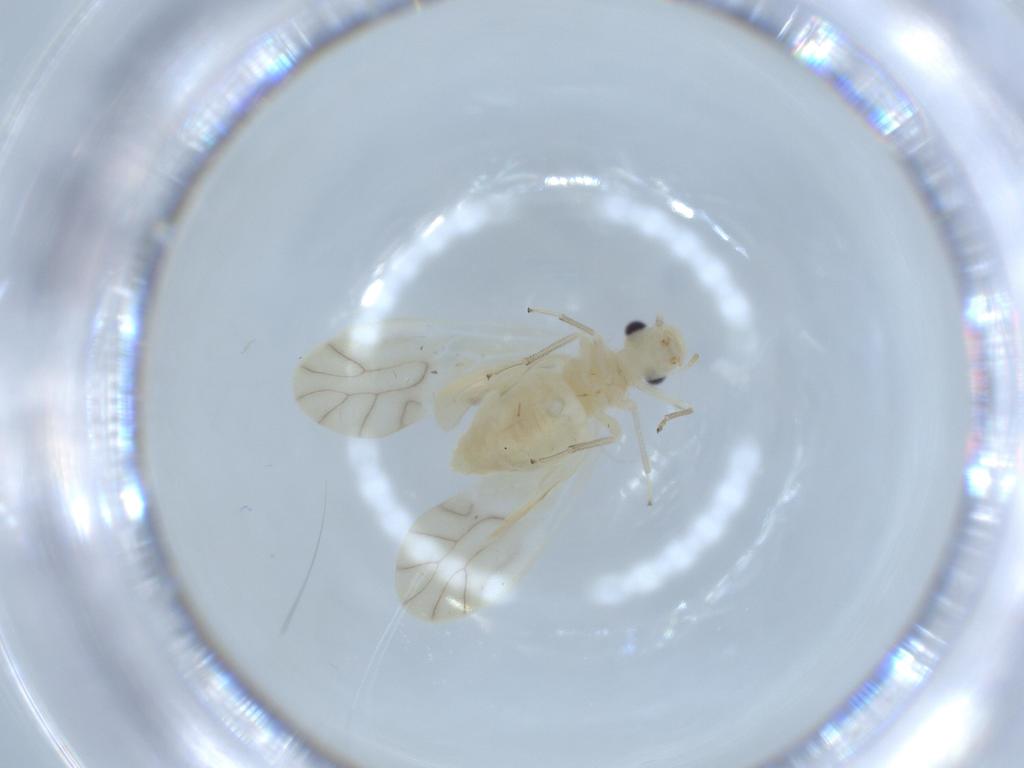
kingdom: Animalia
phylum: Arthropoda
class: Insecta
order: Psocodea
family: Caeciliusidae
